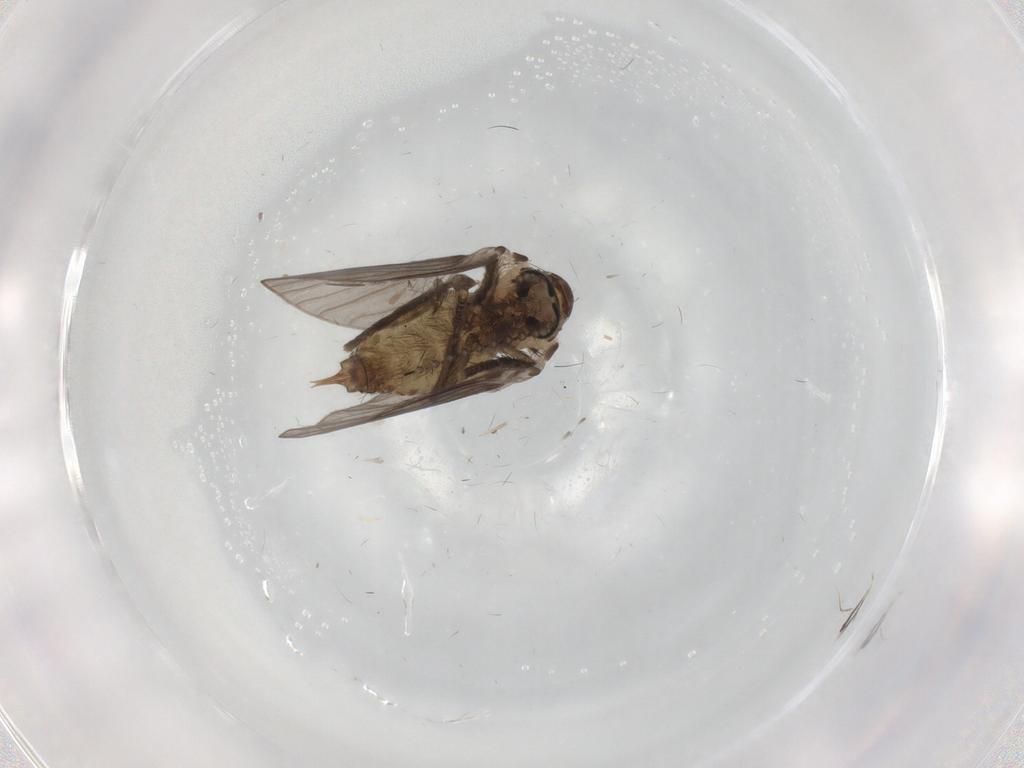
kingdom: Animalia
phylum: Arthropoda
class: Insecta
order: Diptera
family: Psychodidae
